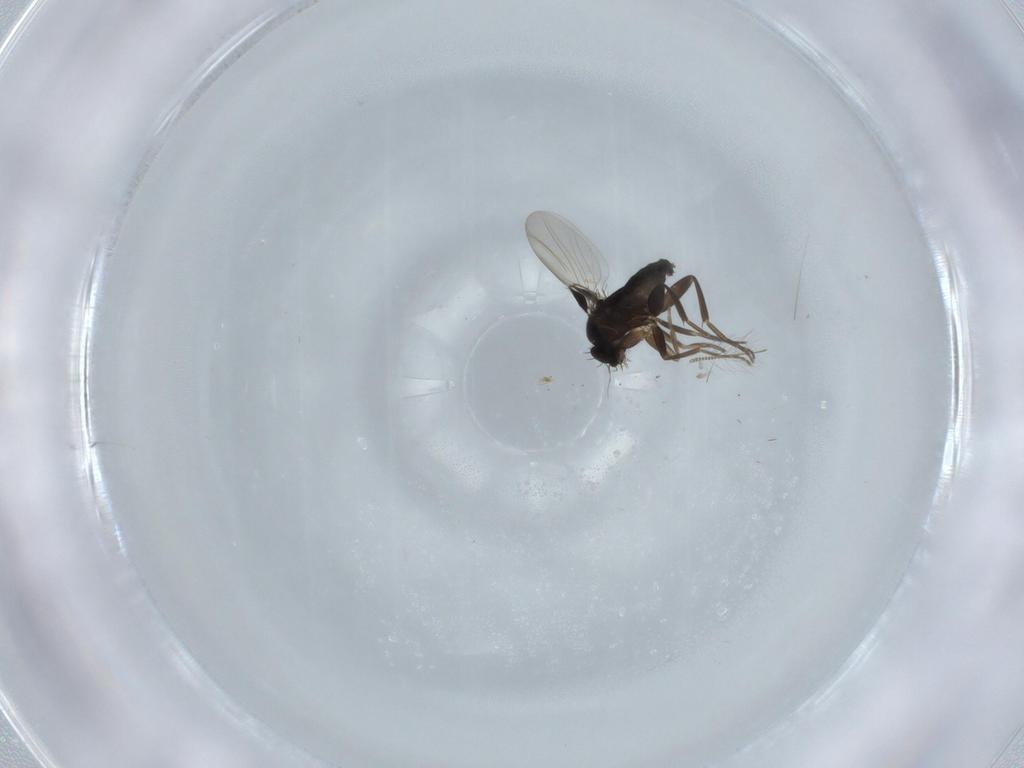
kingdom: Animalia
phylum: Arthropoda
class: Insecta
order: Diptera
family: Phoridae
